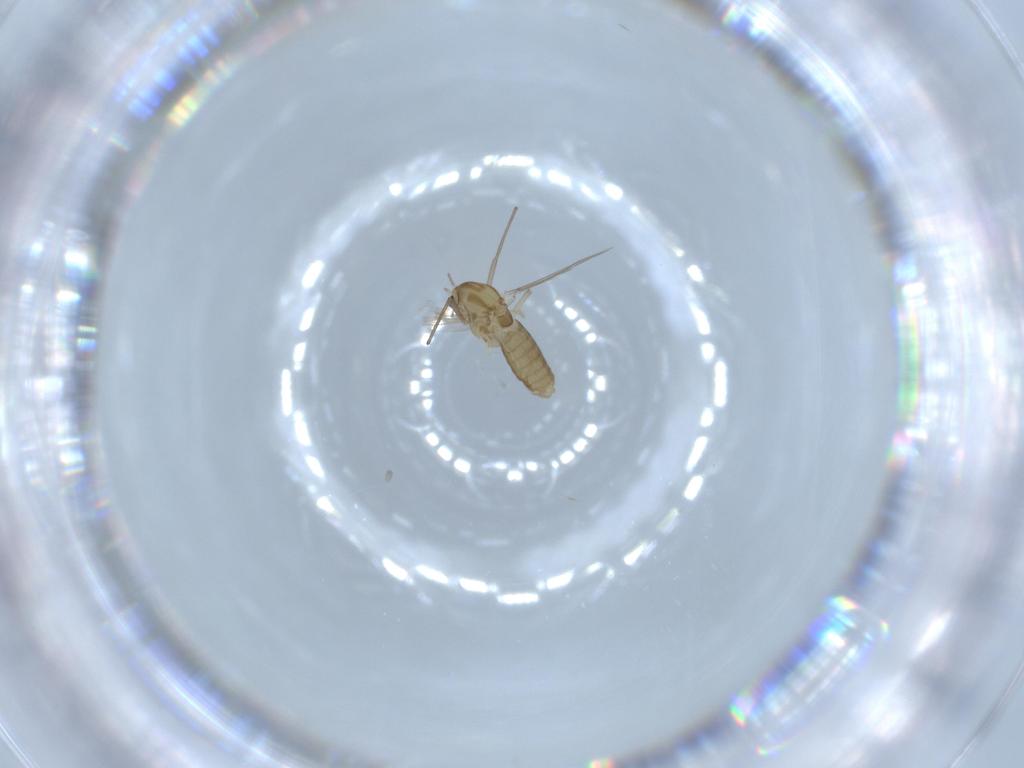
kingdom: Animalia
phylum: Arthropoda
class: Insecta
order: Diptera
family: Chironomidae
